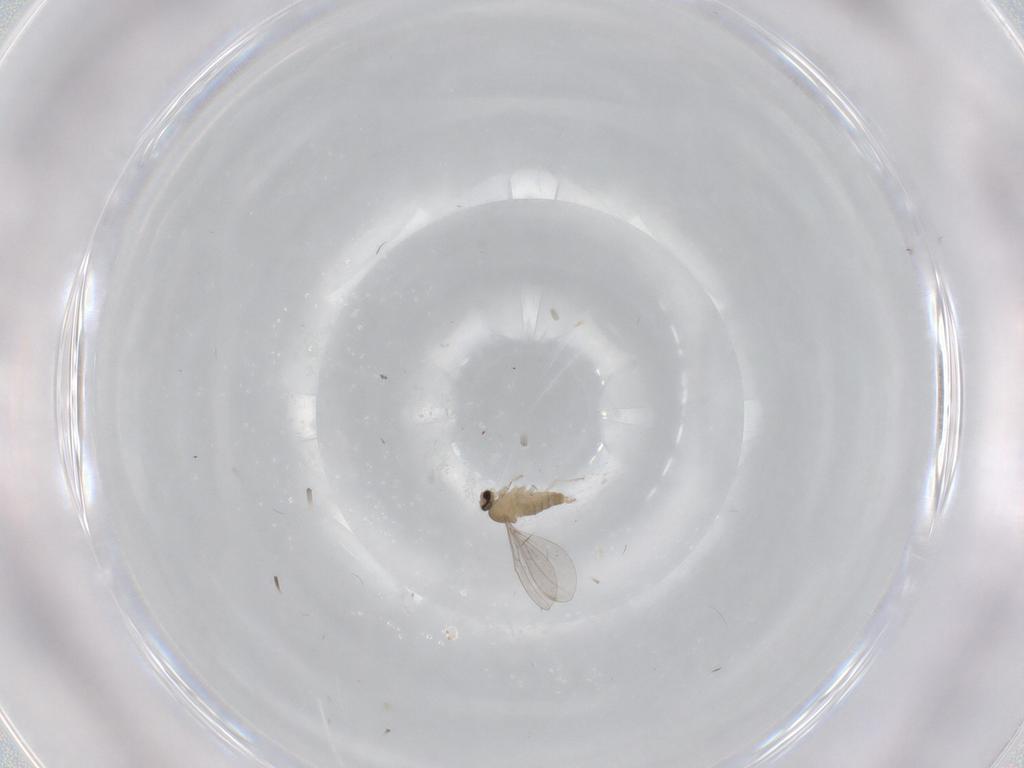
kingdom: Animalia
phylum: Arthropoda
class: Insecta
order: Diptera
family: Cecidomyiidae
